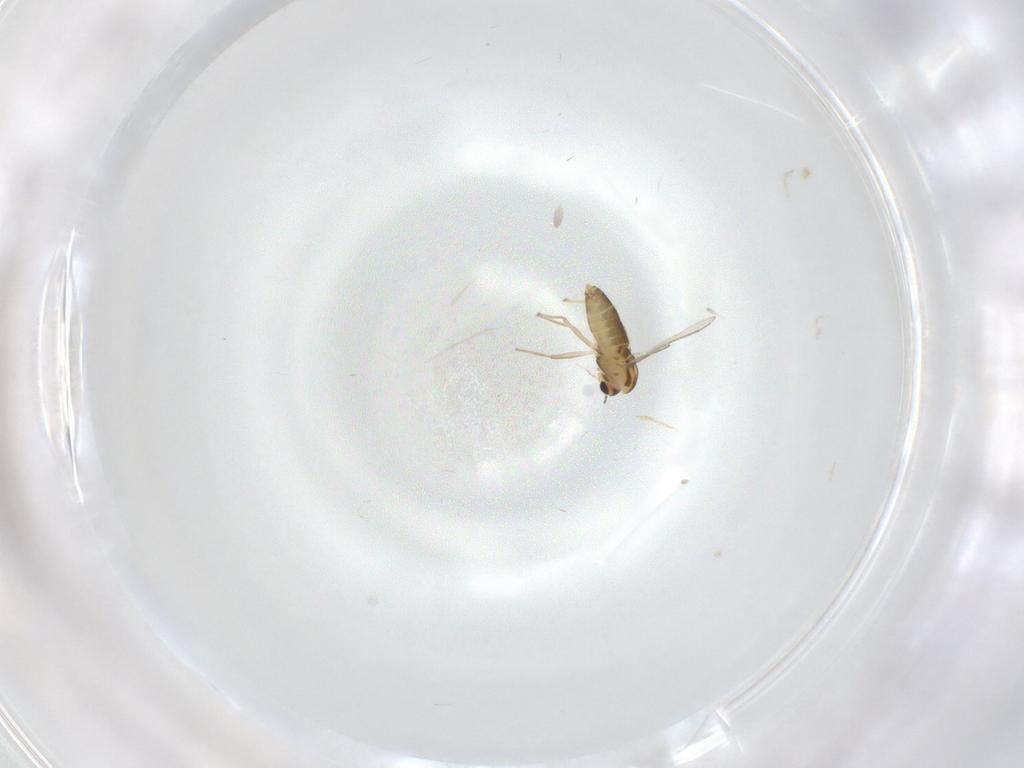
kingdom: Animalia
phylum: Arthropoda
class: Insecta
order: Diptera
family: Chironomidae
